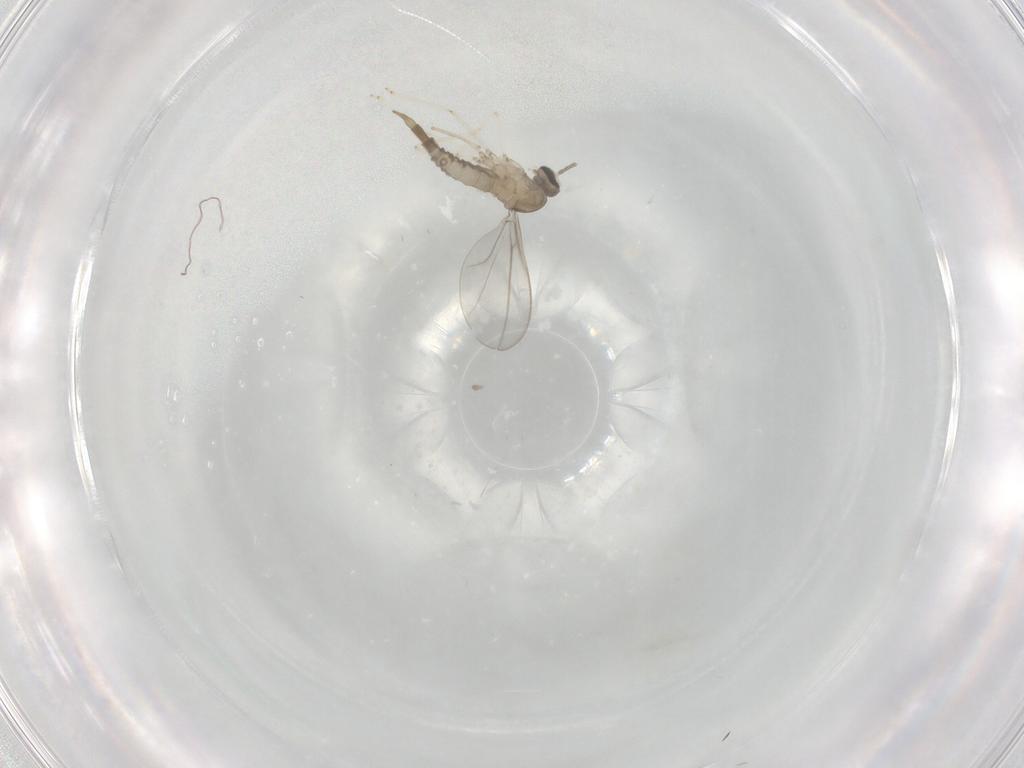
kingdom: Animalia
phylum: Arthropoda
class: Insecta
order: Diptera
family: Cecidomyiidae
